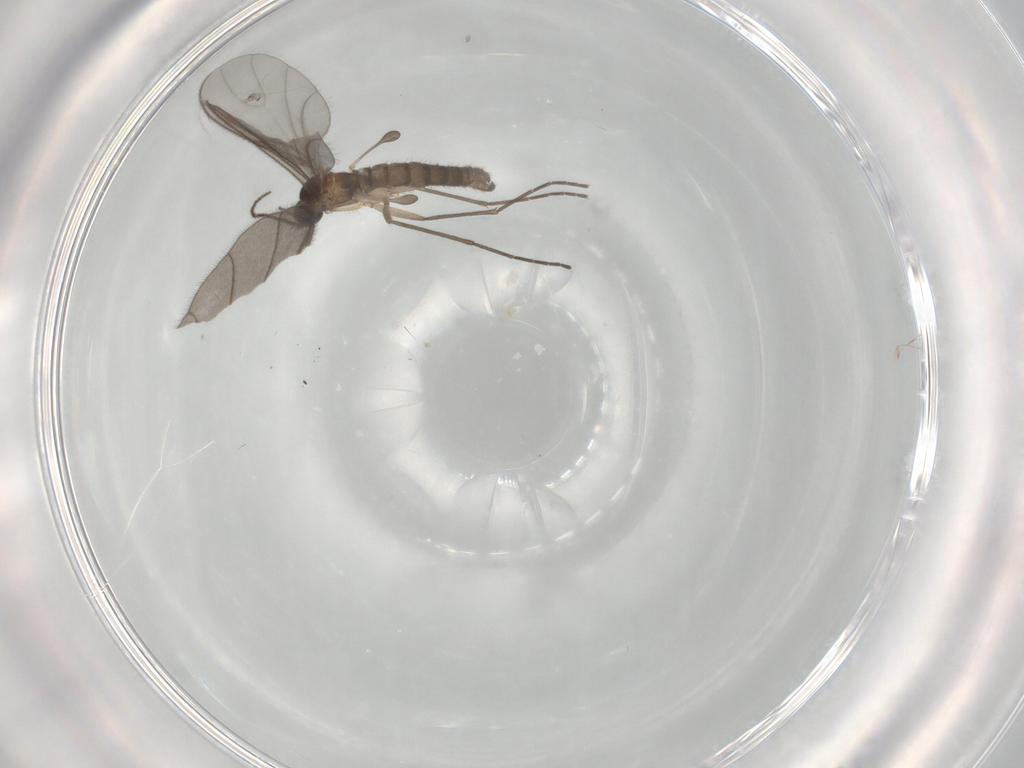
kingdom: Animalia
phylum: Arthropoda
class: Insecta
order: Diptera
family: Sciaridae
